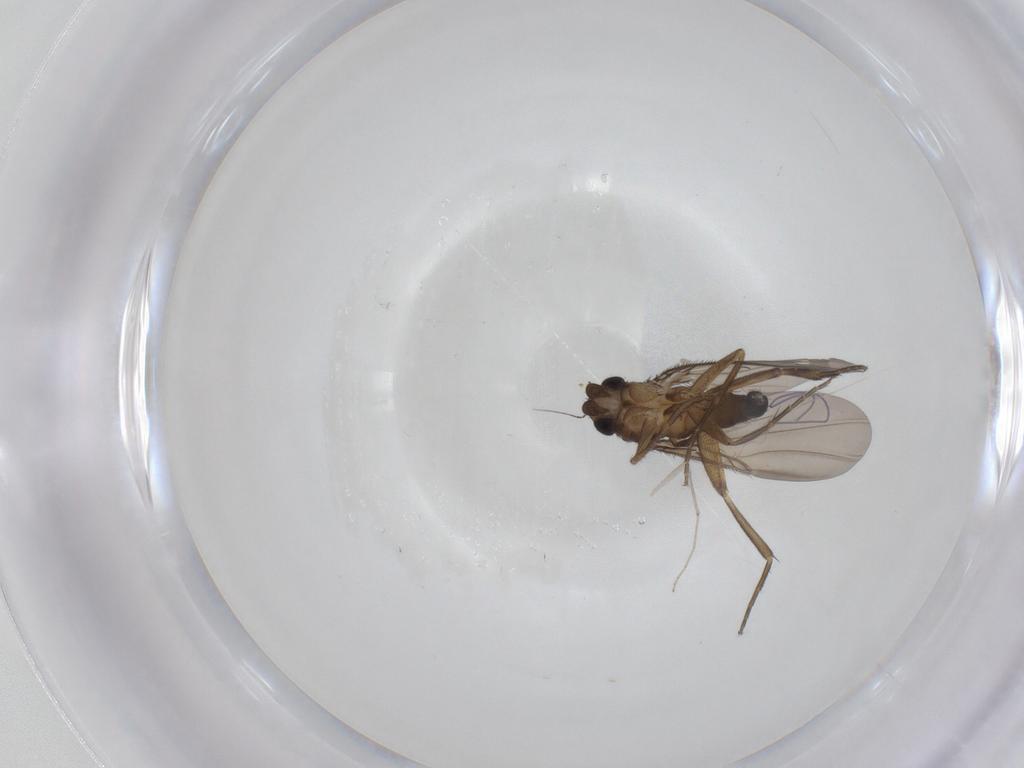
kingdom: Animalia
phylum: Arthropoda
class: Insecta
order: Diptera
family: Phoridae
